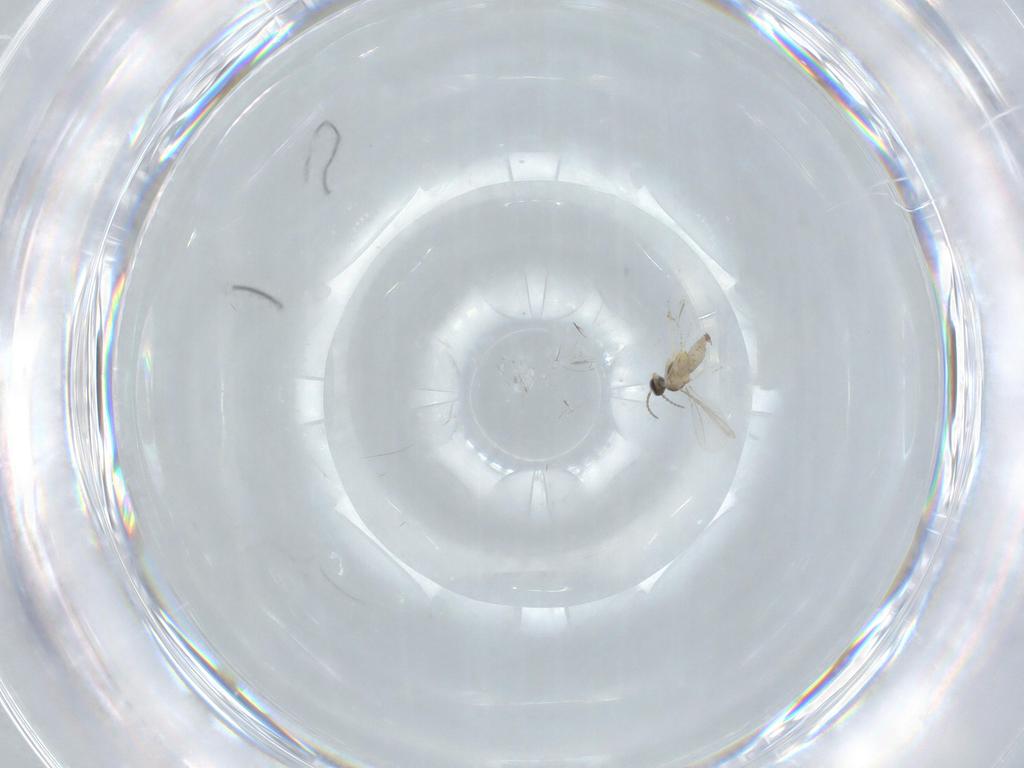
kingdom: Animalia
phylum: Arthropoda
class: Insecta
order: Diptera
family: Cecidomyiidae
